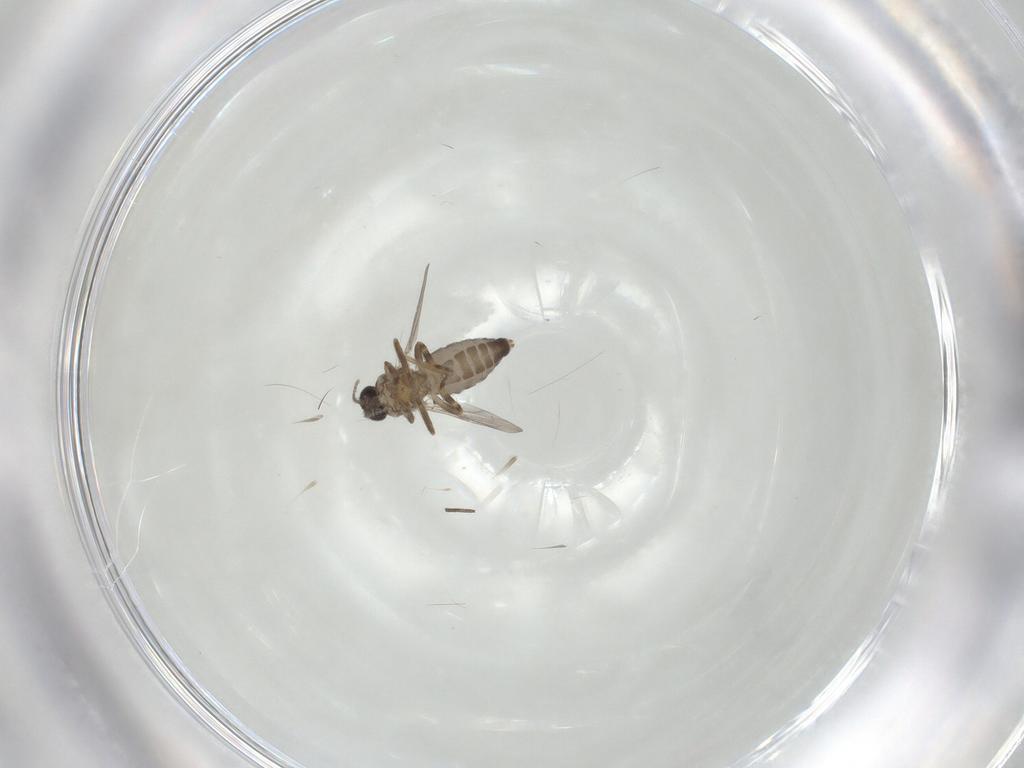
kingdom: Animalia
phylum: Arthropoda
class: Insecta
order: Diptera
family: Ceratopogonidae
